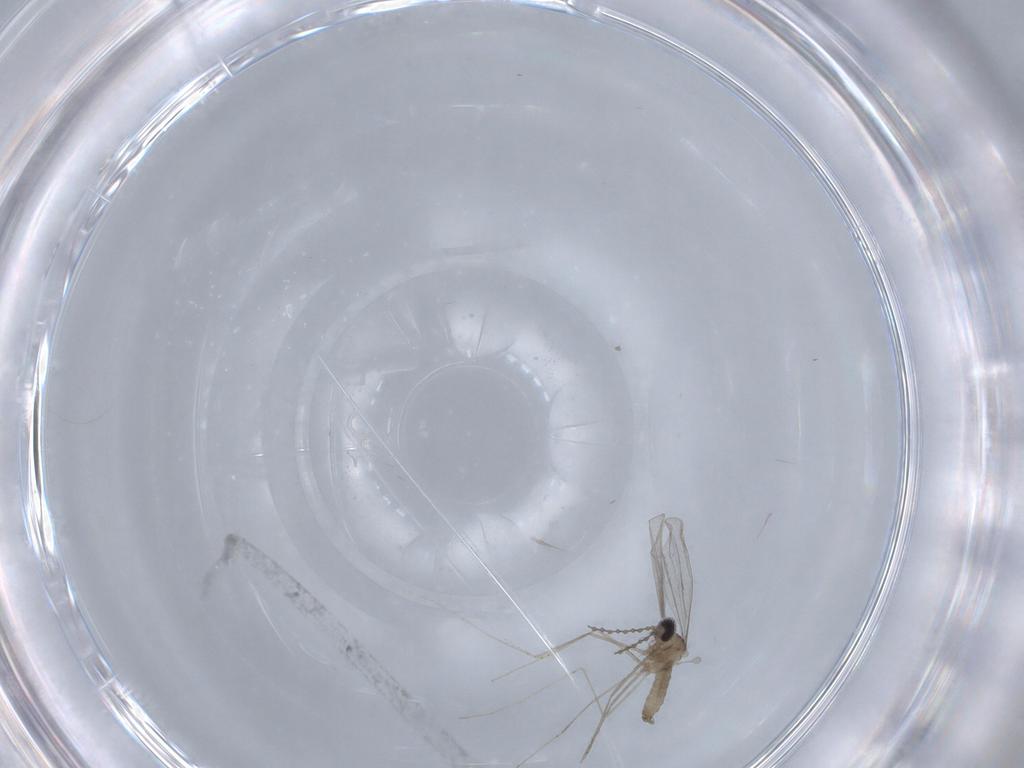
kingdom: Animalia
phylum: Arthropoda
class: Insecta
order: Diptera
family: Cecidomyiidae
